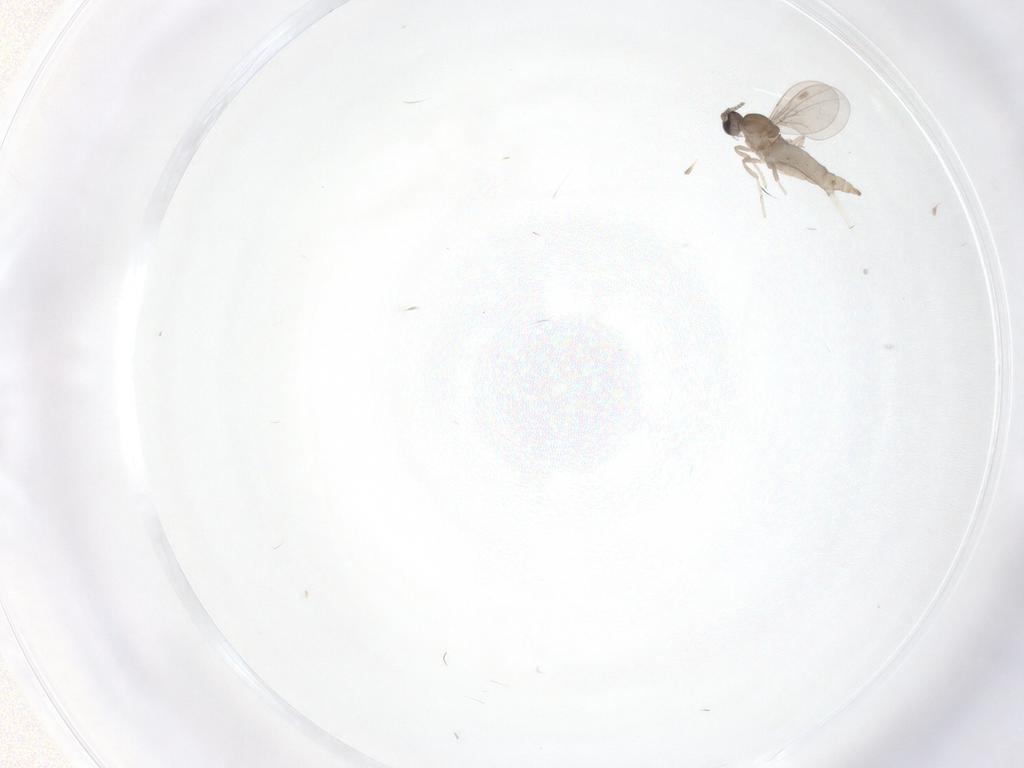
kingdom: Animalia
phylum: Arthropoda
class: Insecta
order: Diptera
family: Cecidomyiidae
